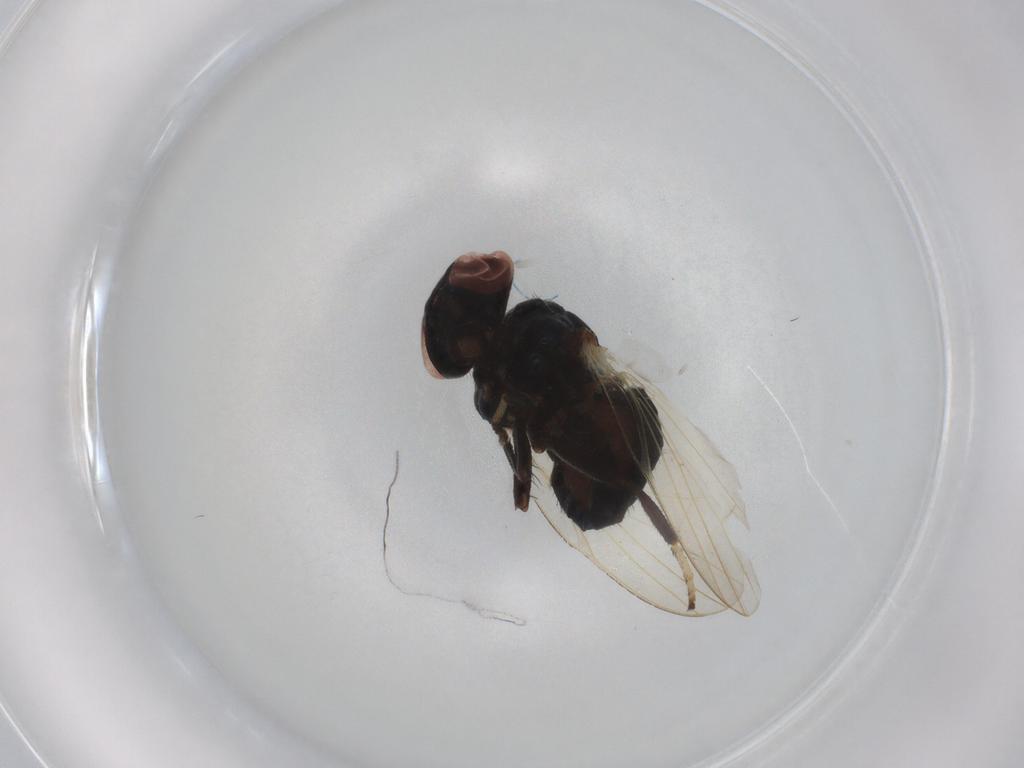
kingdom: Animalia
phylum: Arthropoda
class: Insecta
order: Diptera
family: Lonchaeidae
